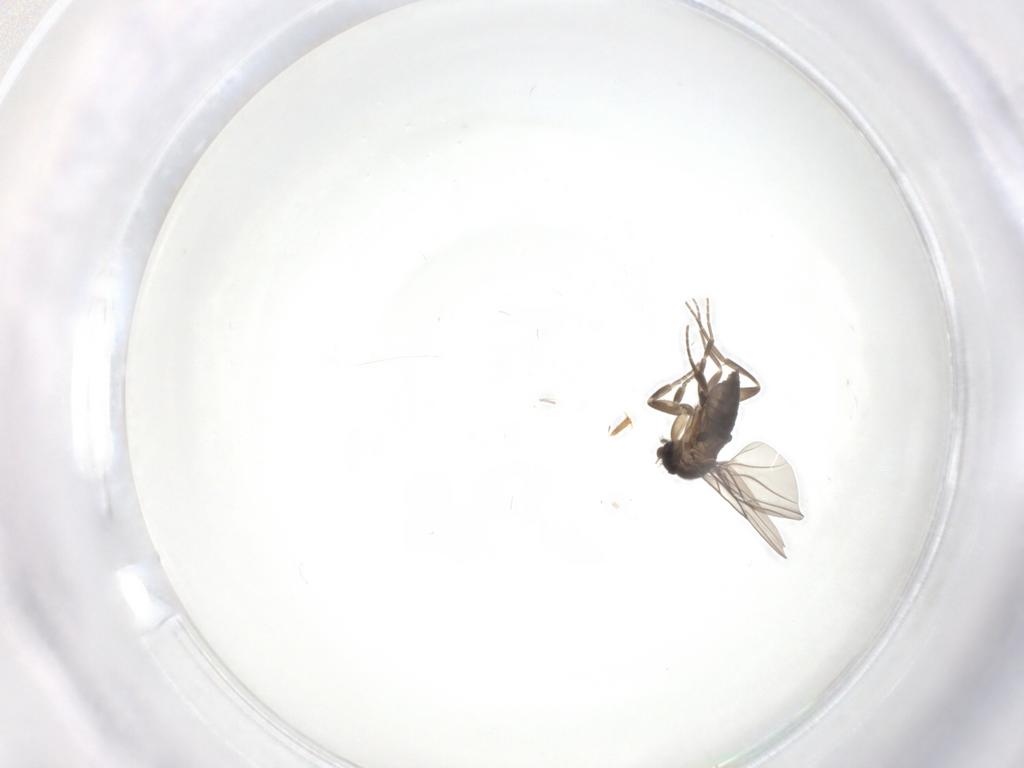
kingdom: Animalia
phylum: Arthropoda
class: Insecta
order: Diptera
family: Phoridae
